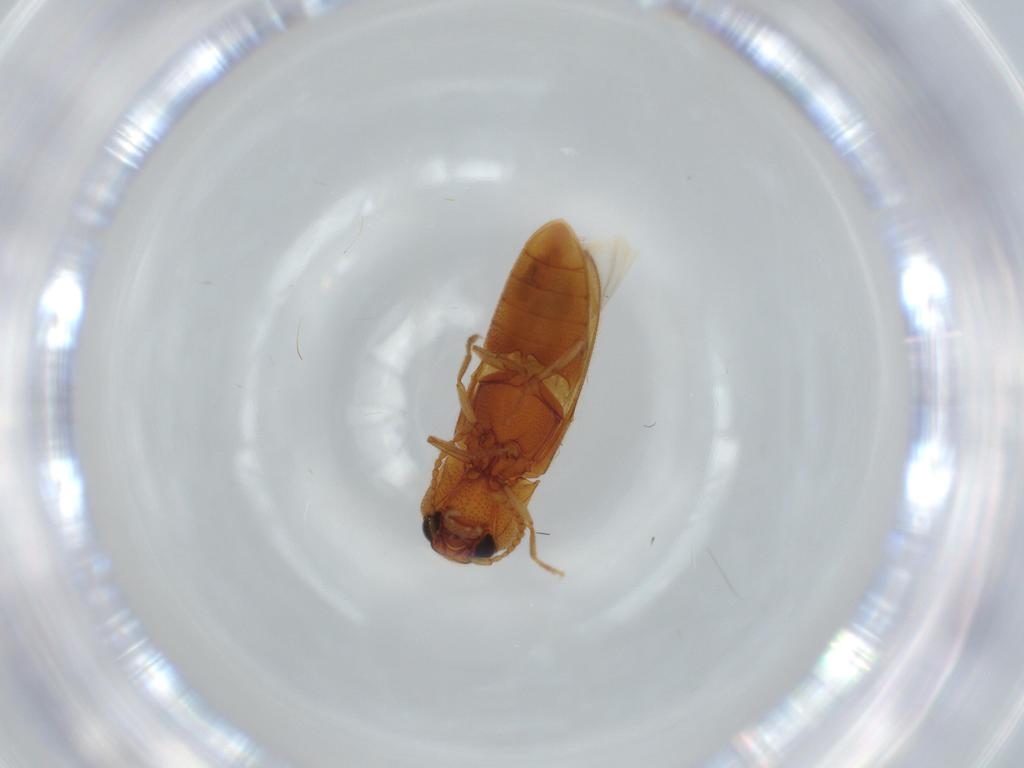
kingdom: Animalia
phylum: Arthropoda
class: Insecta
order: Coleoptera
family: Elateridae
